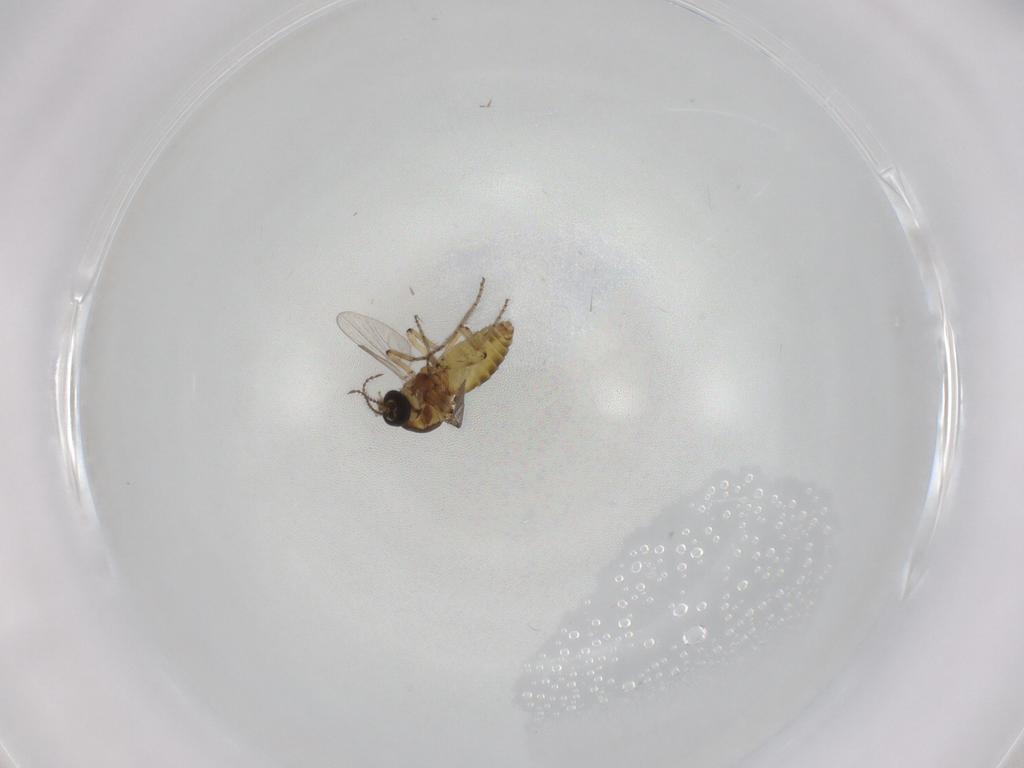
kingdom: Animalia
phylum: Arthropoda
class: Insecta
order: Diptera
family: Ceratopogonidae
